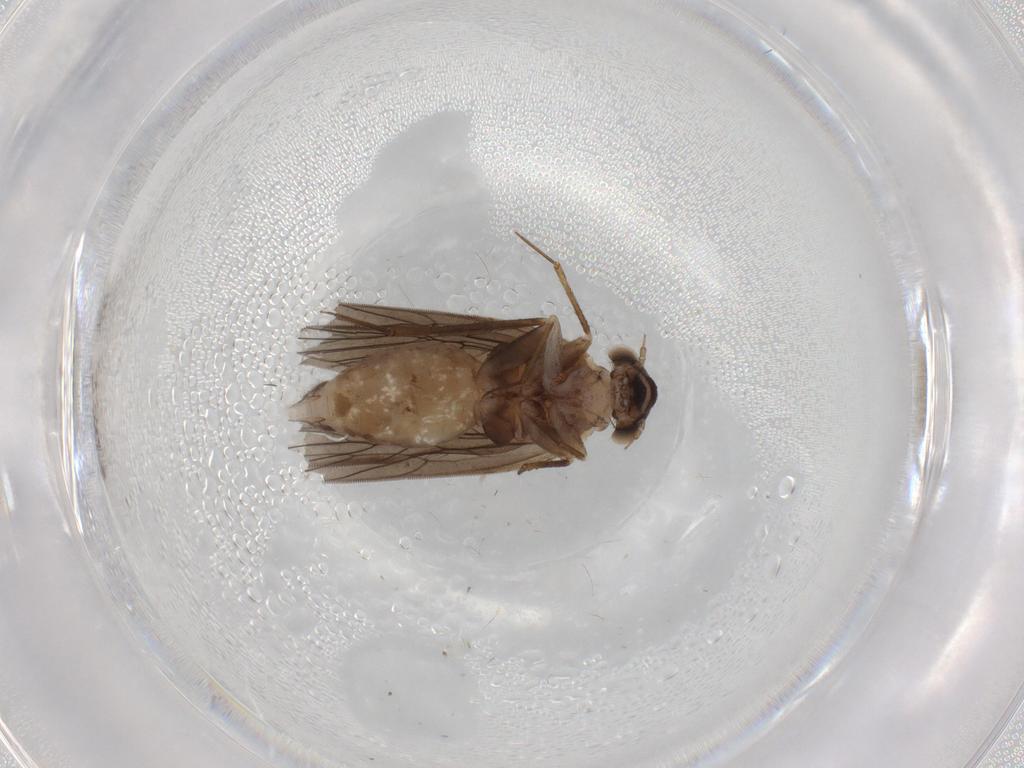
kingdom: Animalia
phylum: Arthropoda
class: Insecta
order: Psocodea
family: Lepidopsocidae
